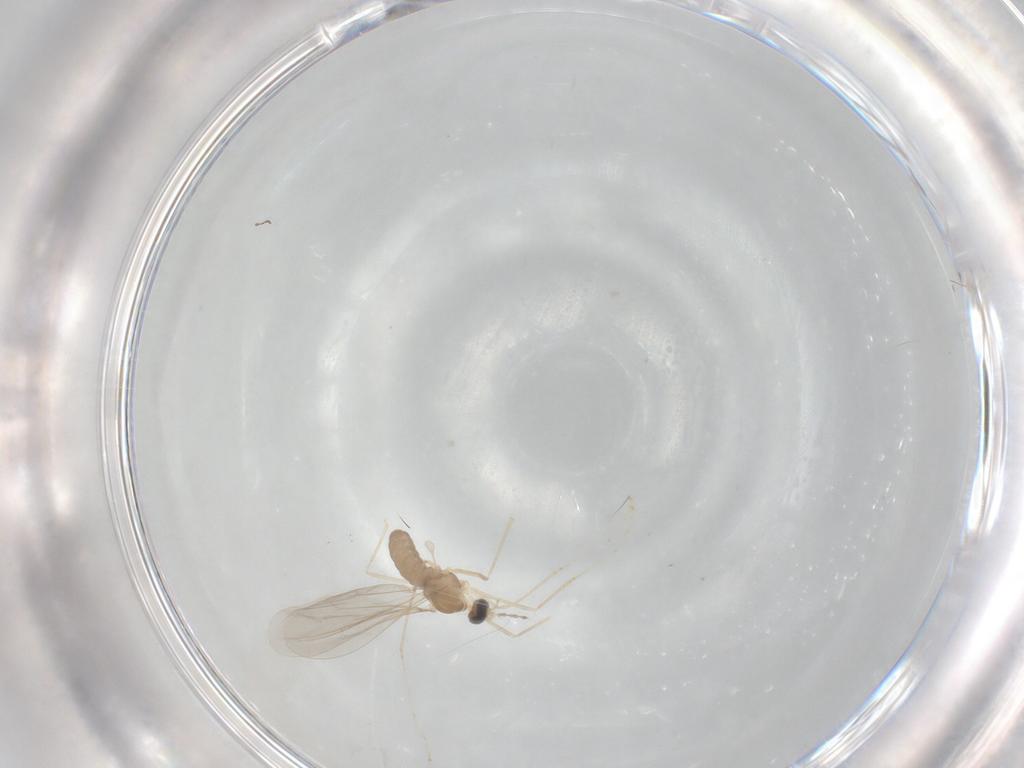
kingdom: Animalia
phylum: Arthropoda
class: Insecta
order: Diptera
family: Cecidomyiidae
